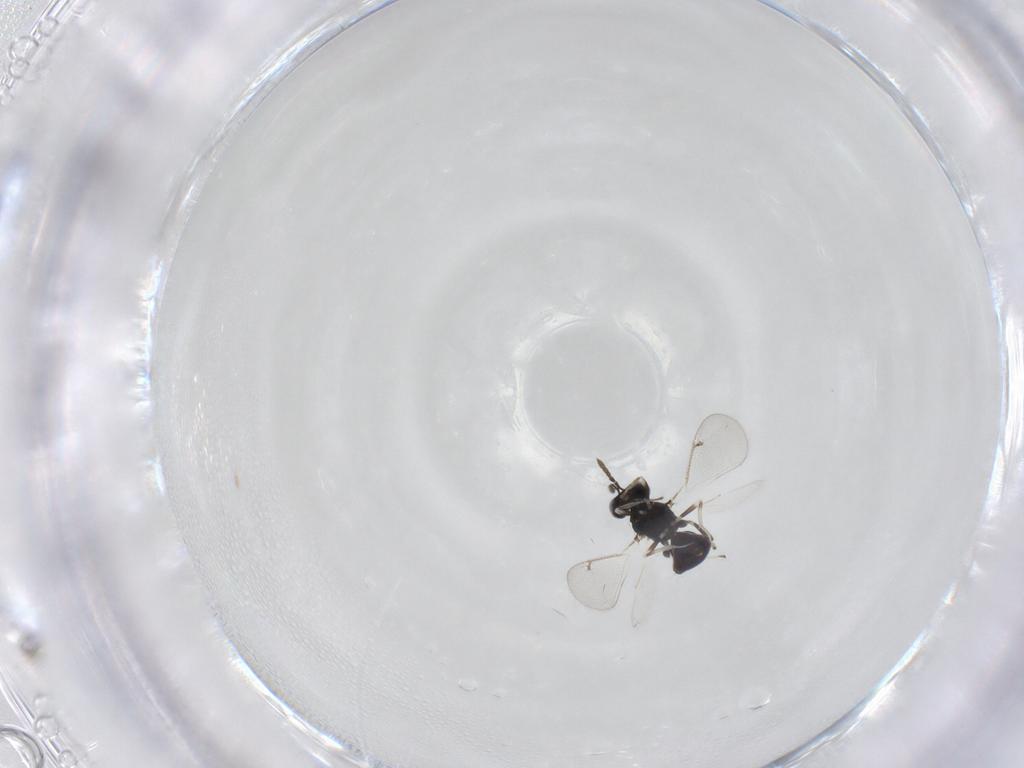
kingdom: Animalia
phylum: Arthropoda
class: Insecta
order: Hymenoptera
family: Eulophidae
